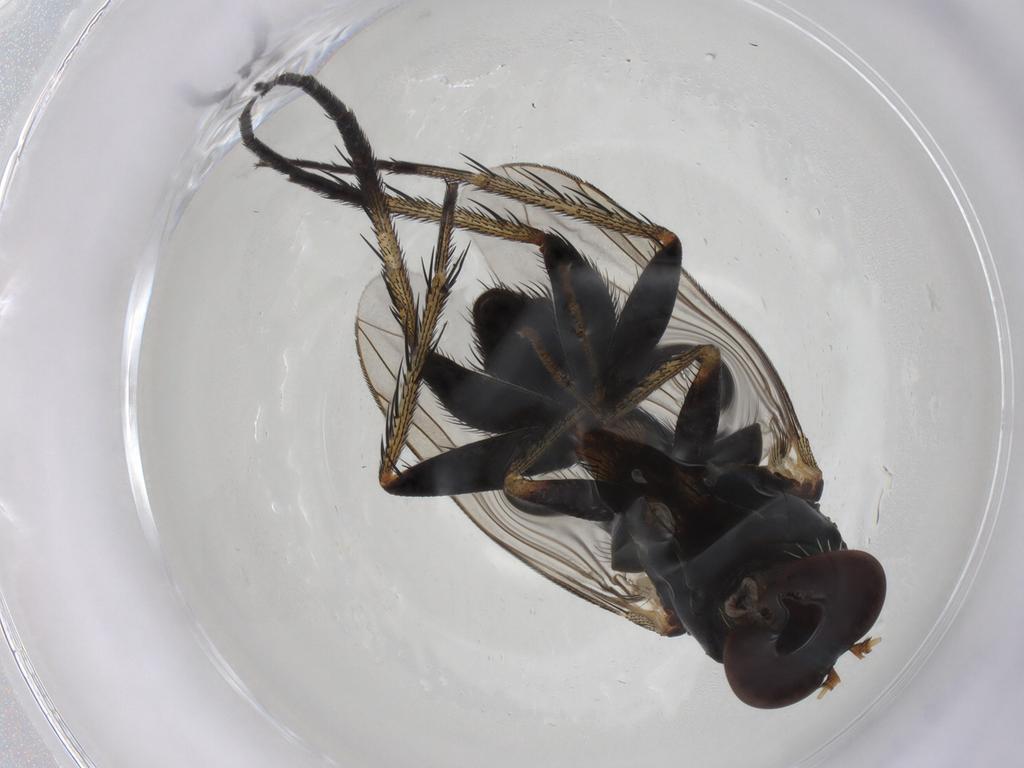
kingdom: Animalia
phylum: Arthropoda
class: Insecta
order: Diptera
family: Dolichopodidae
